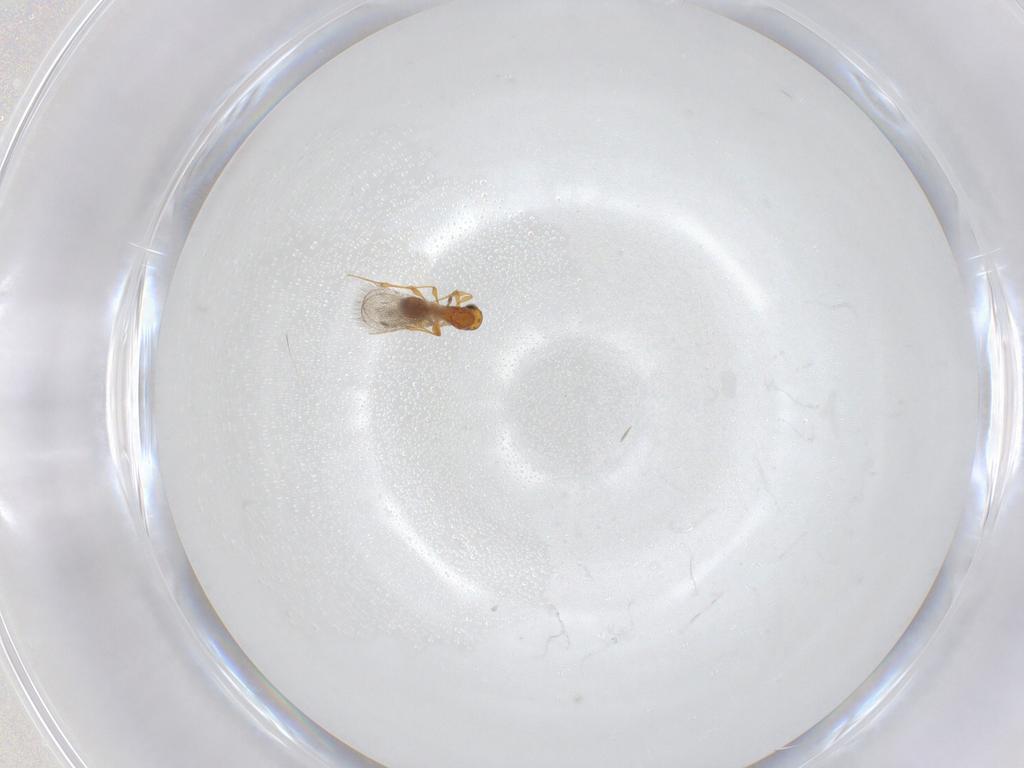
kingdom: Animalia
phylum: Arthropoda
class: Insecta
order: Hymenoptera
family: Platygastridae
